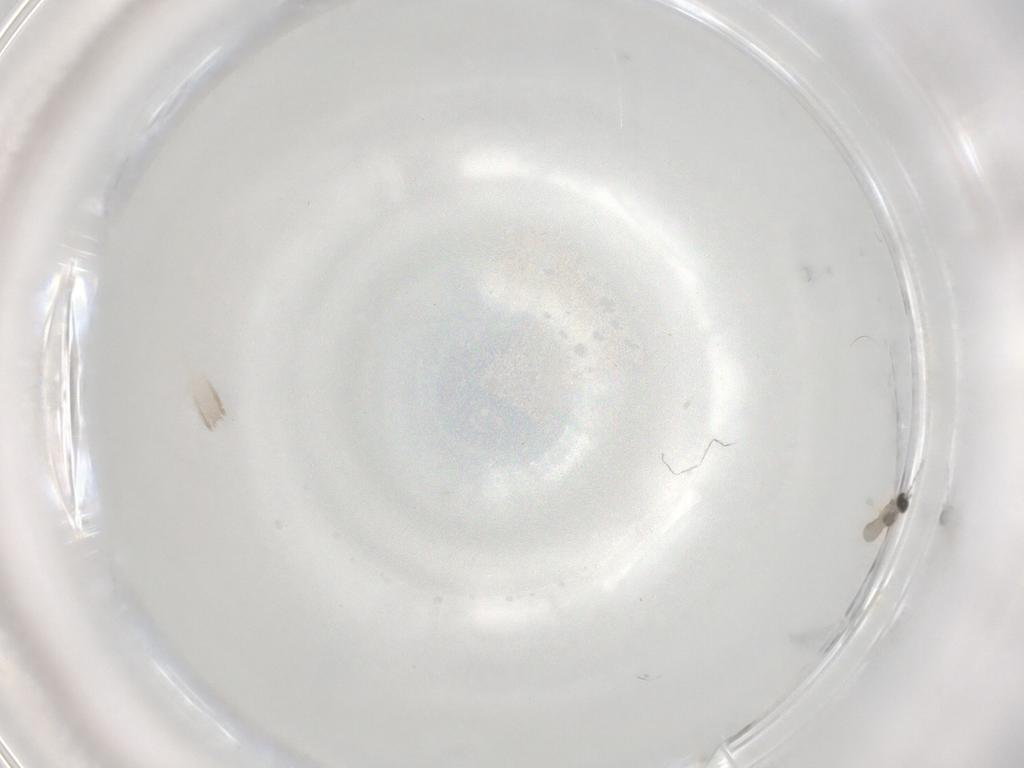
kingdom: Animalia
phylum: Arthropoda
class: Insecta
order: Diptera
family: Cecidomyiidae
